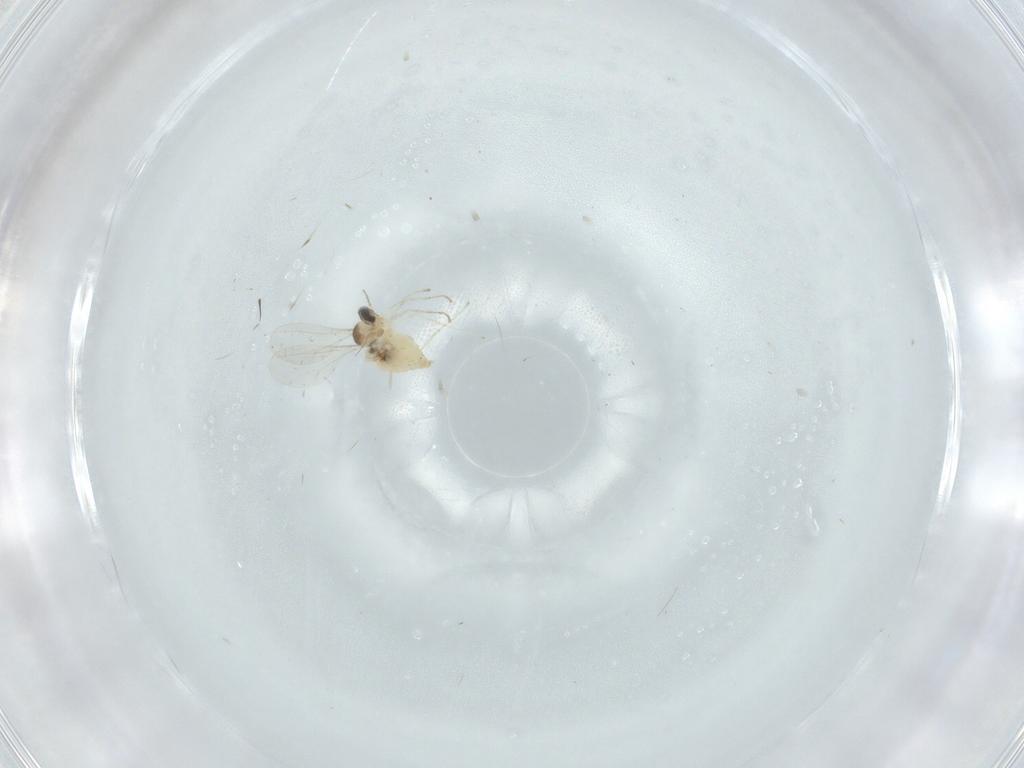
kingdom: Animalia
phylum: Arthropoda
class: Insecta
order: Diptera
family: Cecidomyiidae
